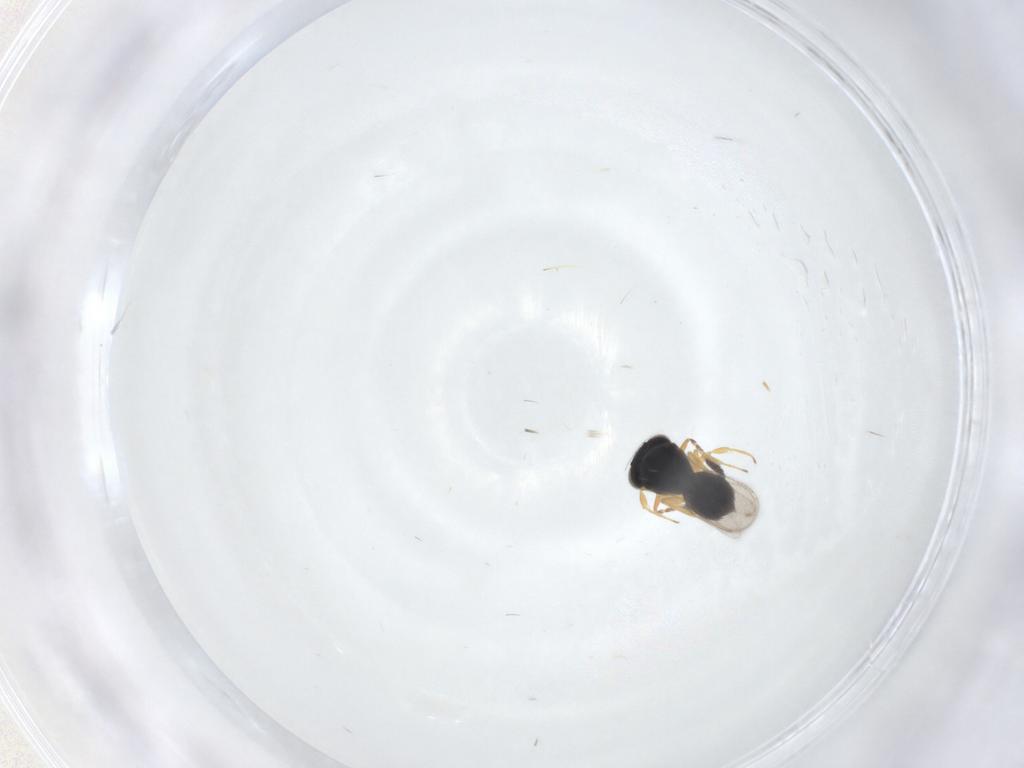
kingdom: Animalia
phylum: Arthropoda
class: Insecta
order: Hymenoptera
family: Scelionidae
